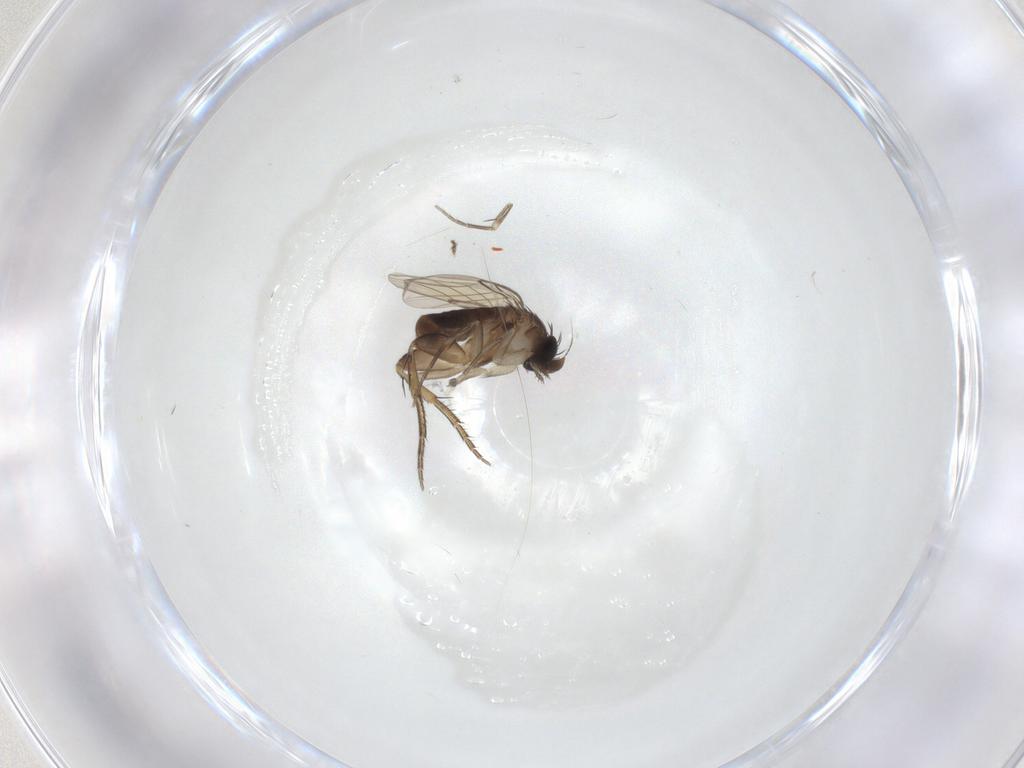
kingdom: Animalia
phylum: Arthropoda
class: Insecta
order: Diptera
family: Phoridae
